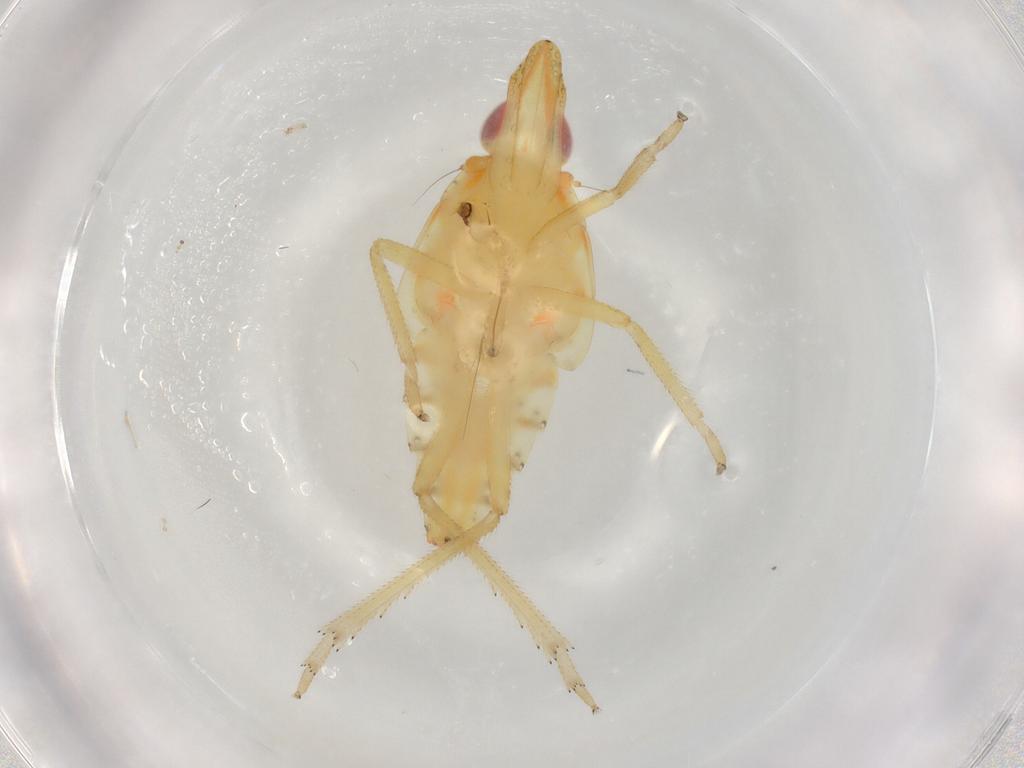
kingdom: Animalia
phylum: Arthropoda
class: Insecta
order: Hemiptera
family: Tropiduchidae
